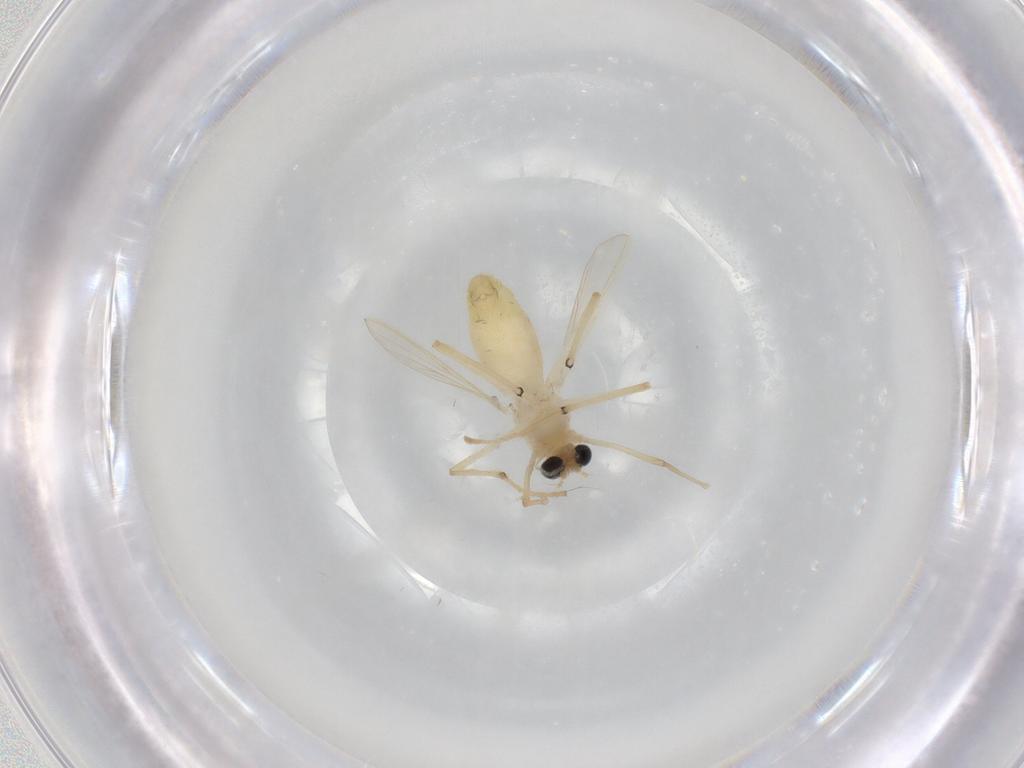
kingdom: Animalia
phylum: Arthropoda
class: Insecta
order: Diptera
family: Chironomidae
